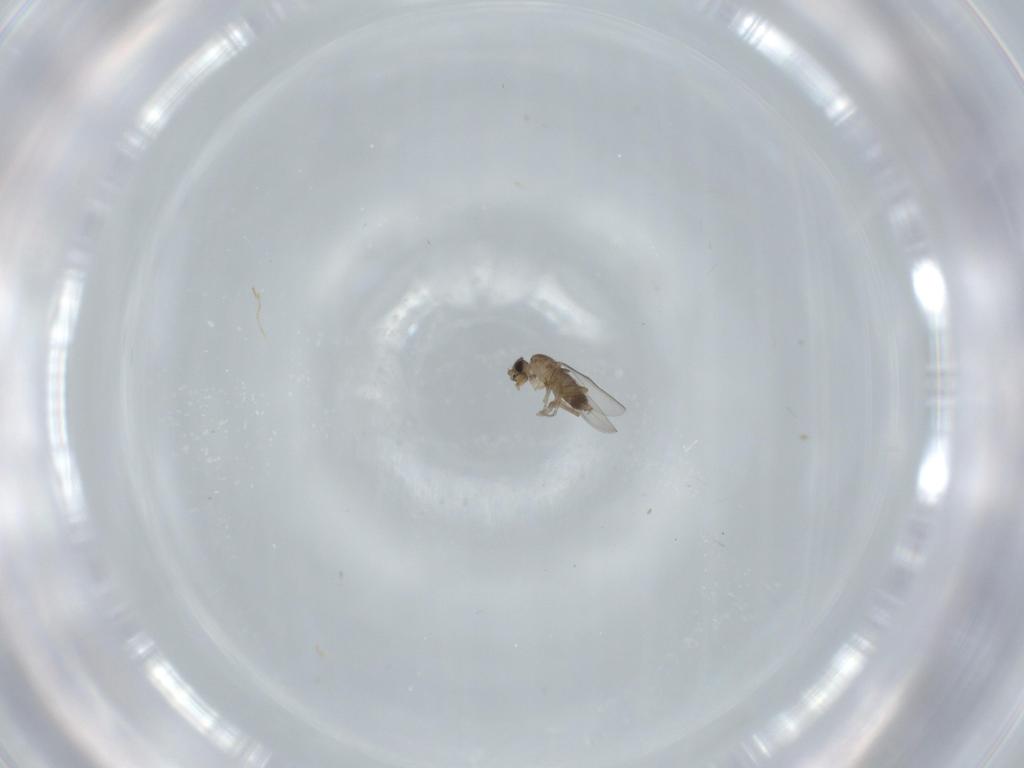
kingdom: Animalia
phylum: Arthropoda
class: Insecta
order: Diptera
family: Phoridae
